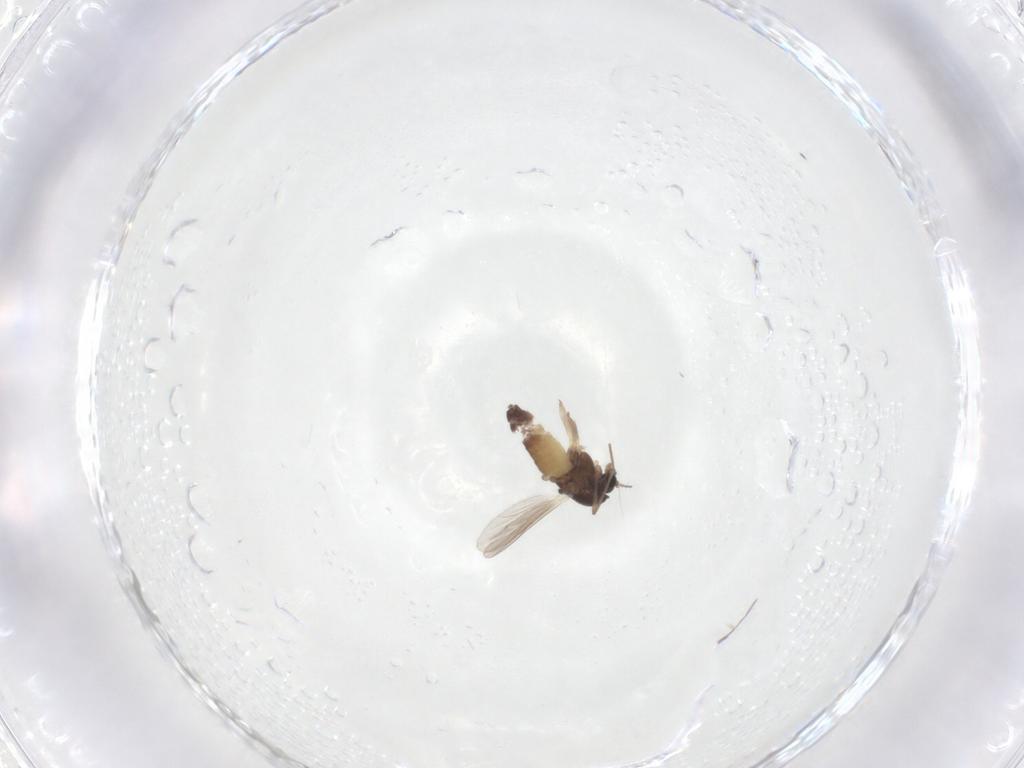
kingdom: Animalia
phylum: Arthropoda
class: Insecta
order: Diptera
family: Chironomidae
